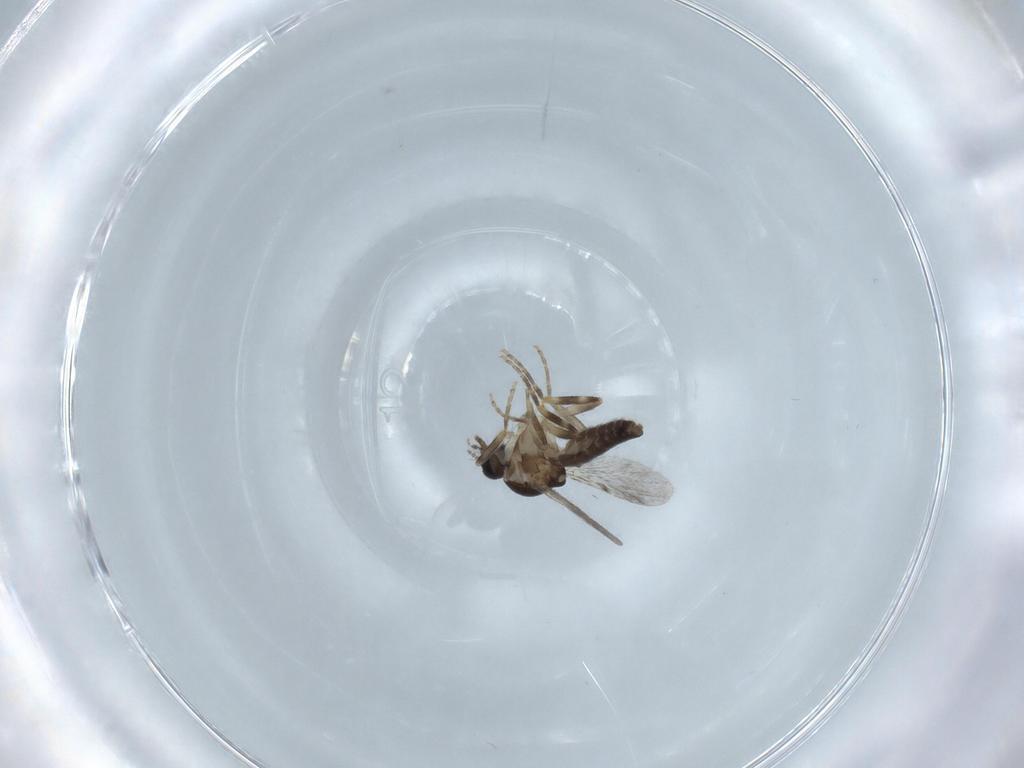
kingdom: Animalia
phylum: Arthropoda
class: Insecta
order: Diptera
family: Ceratopogonidae
